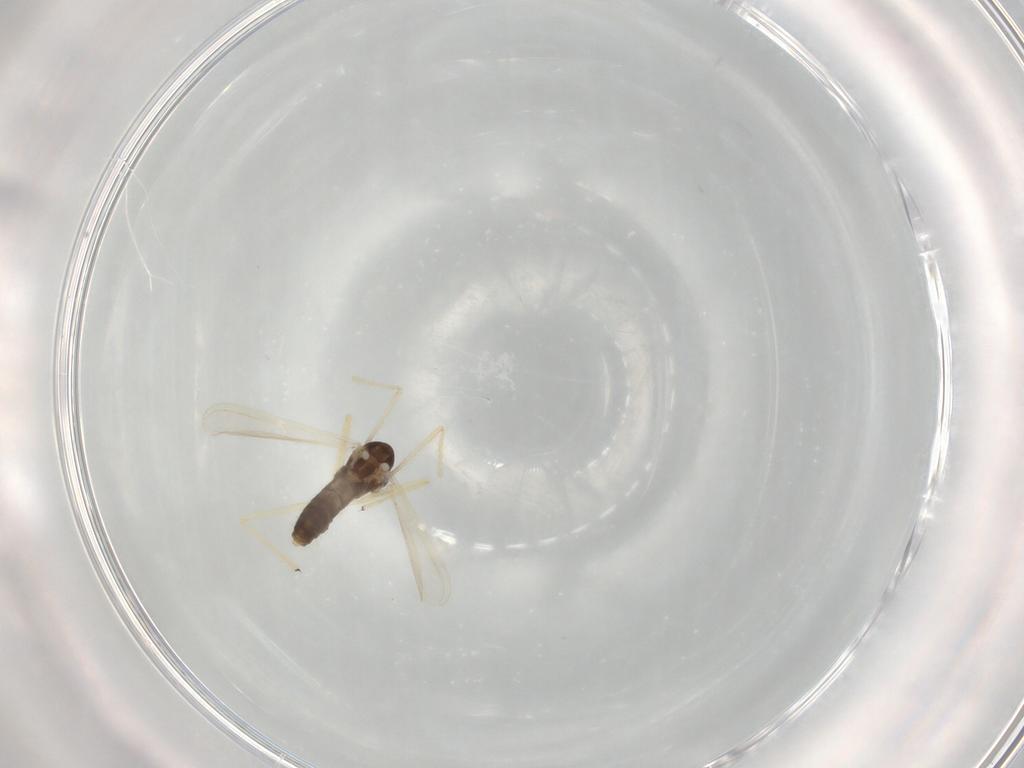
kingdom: Animalia
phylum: Arthropoda
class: Insecta
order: Diptera
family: Chironomidae
